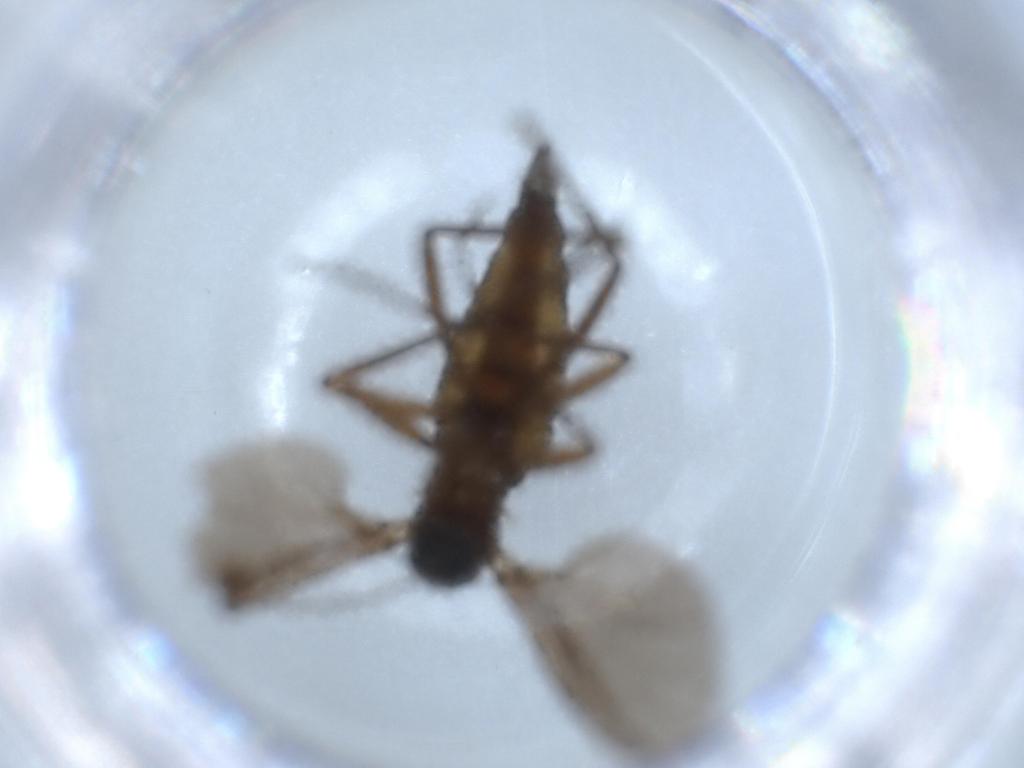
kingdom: Animalia
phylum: Arthropoda
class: Insecta
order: Diptera
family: Sciaridae
